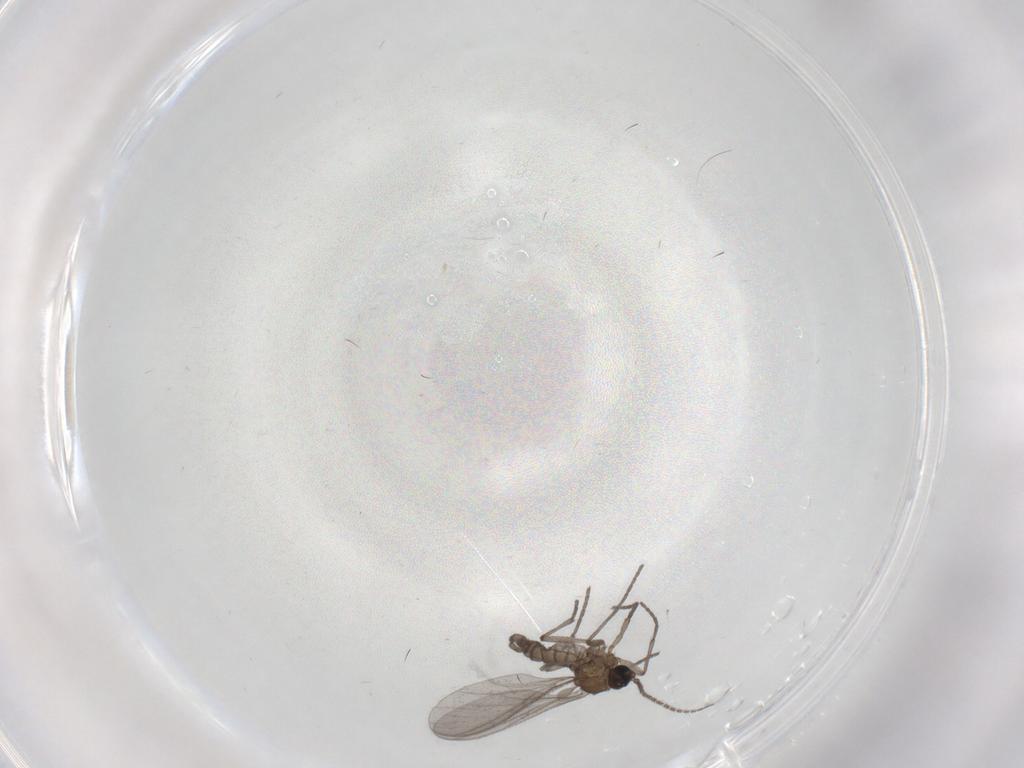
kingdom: Animalia
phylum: Arthropoda
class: Insecta
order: Diptera
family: Sciaridae
